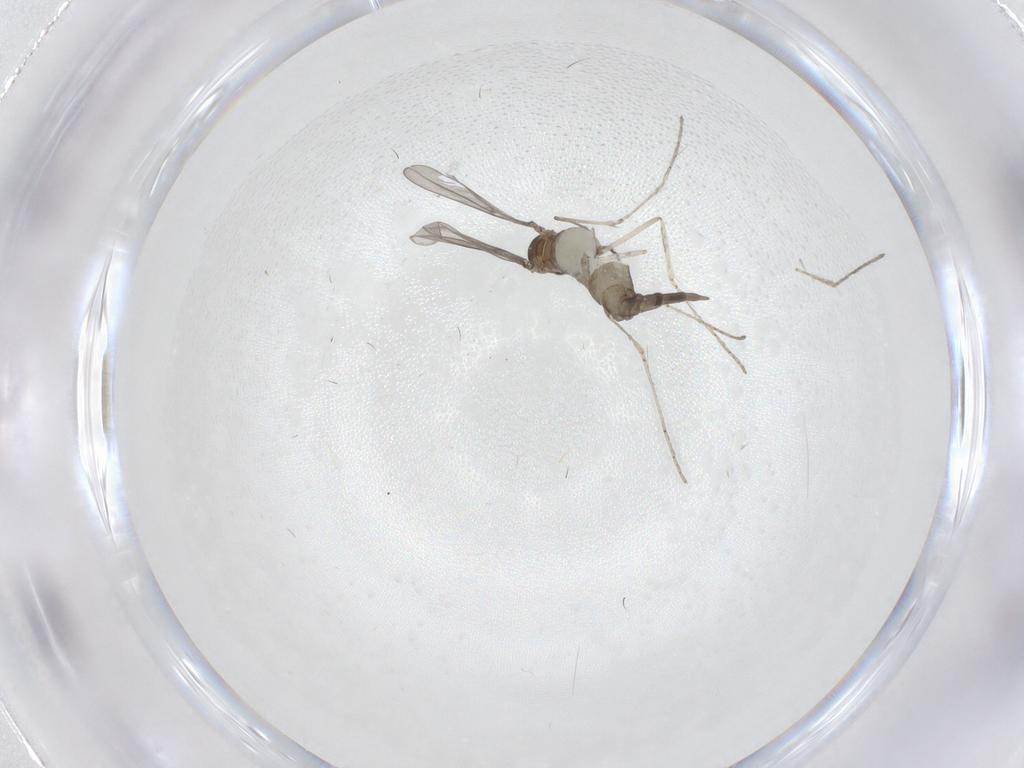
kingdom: Animalia
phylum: Arthropoda
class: Insecta
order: Diptera
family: Cecidomyiidae
